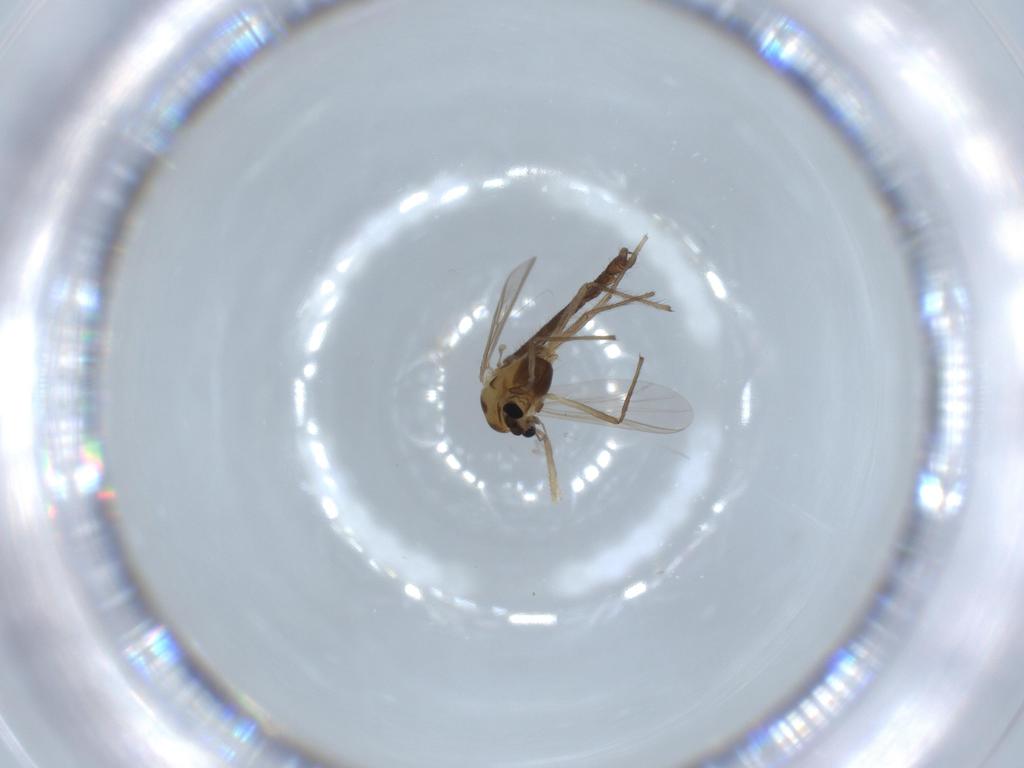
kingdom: Animalia
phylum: Arthropoda
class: Insecta
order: Diptera
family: Chironomidae
